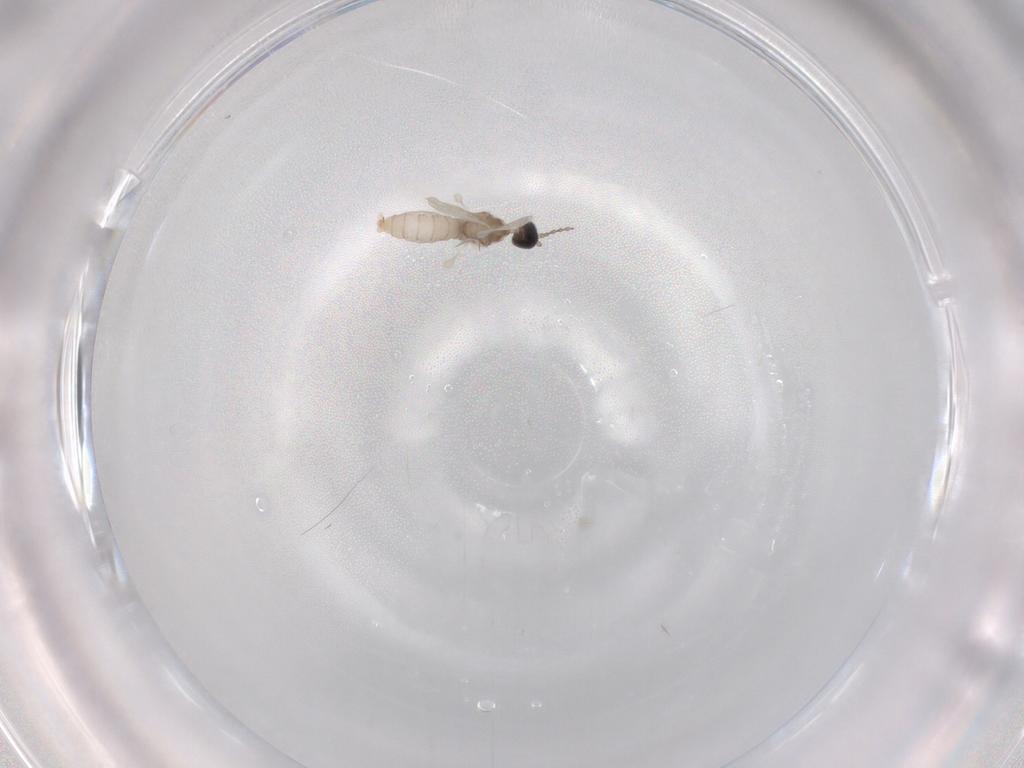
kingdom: Animalia
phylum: Arthropoda
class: Insecta
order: Diptera
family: Cecidomyiidae
